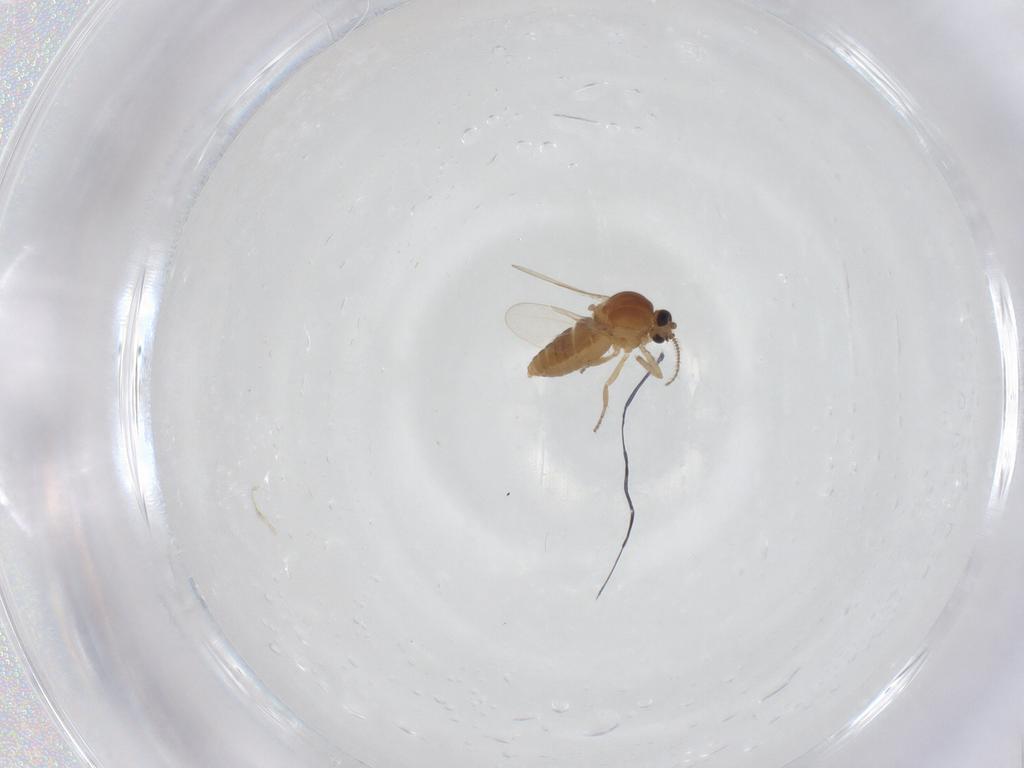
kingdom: Animalia
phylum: Arthropoda
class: Insecta
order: Diptera
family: Ceratopogonidae
